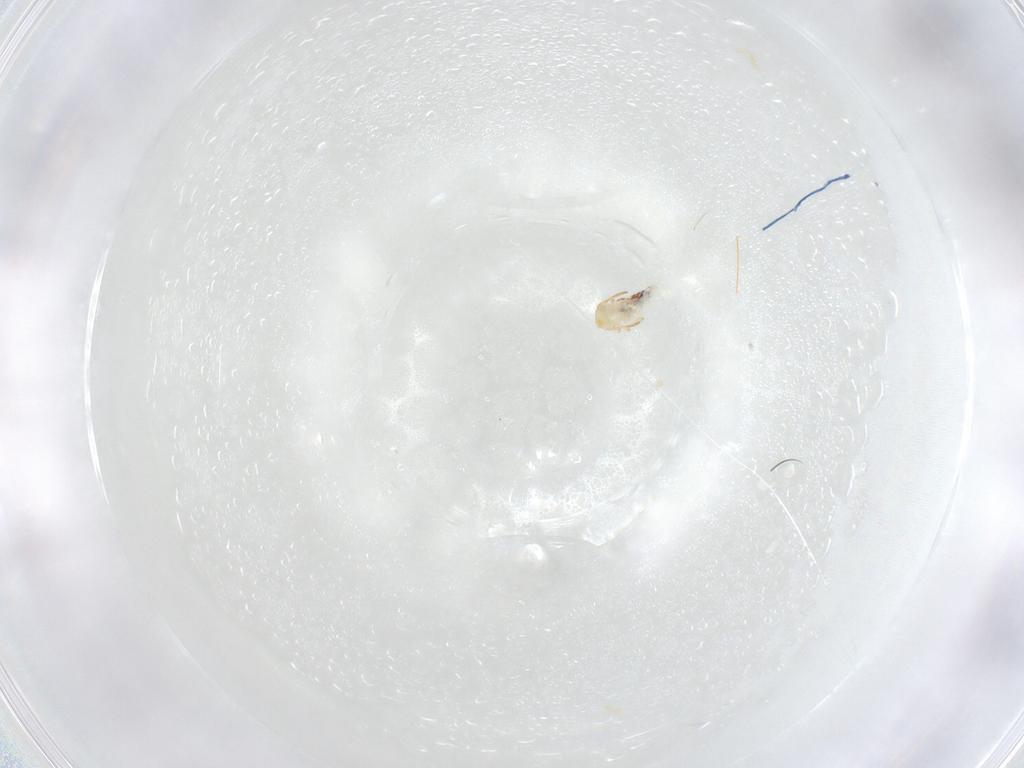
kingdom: Animalia
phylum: Arthropoda
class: Collembola
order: Symphypleona
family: Bourletiellidae
